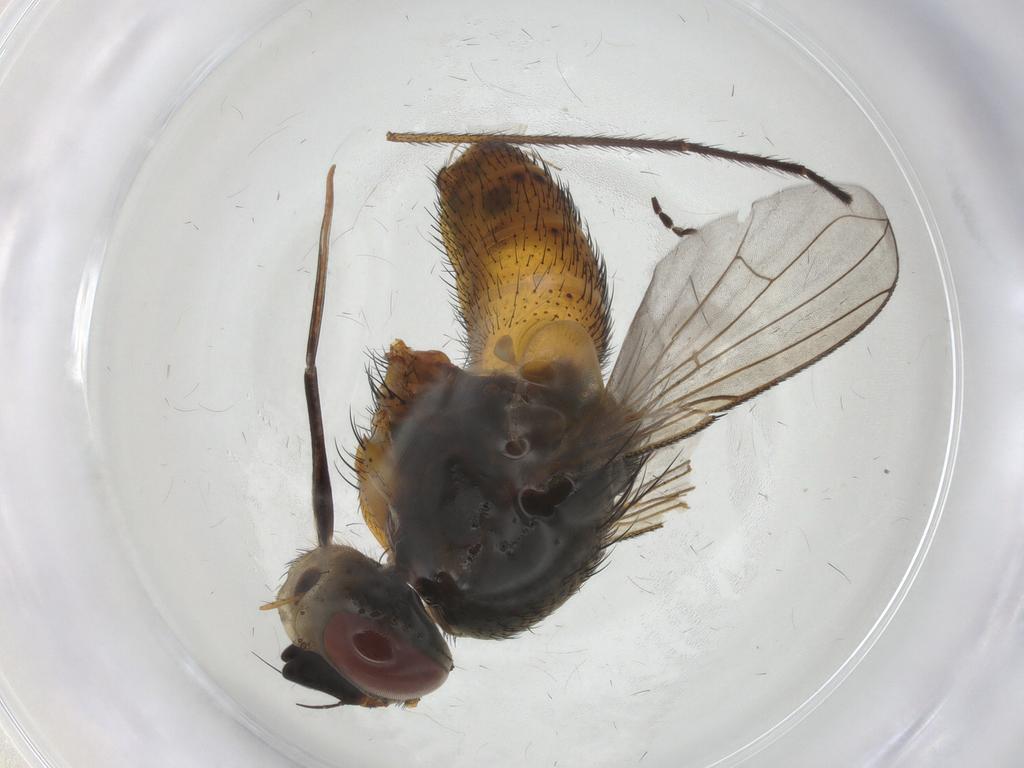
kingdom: Animalia
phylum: Arthropoda
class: Insecta
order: Diptera
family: Tachinidae
